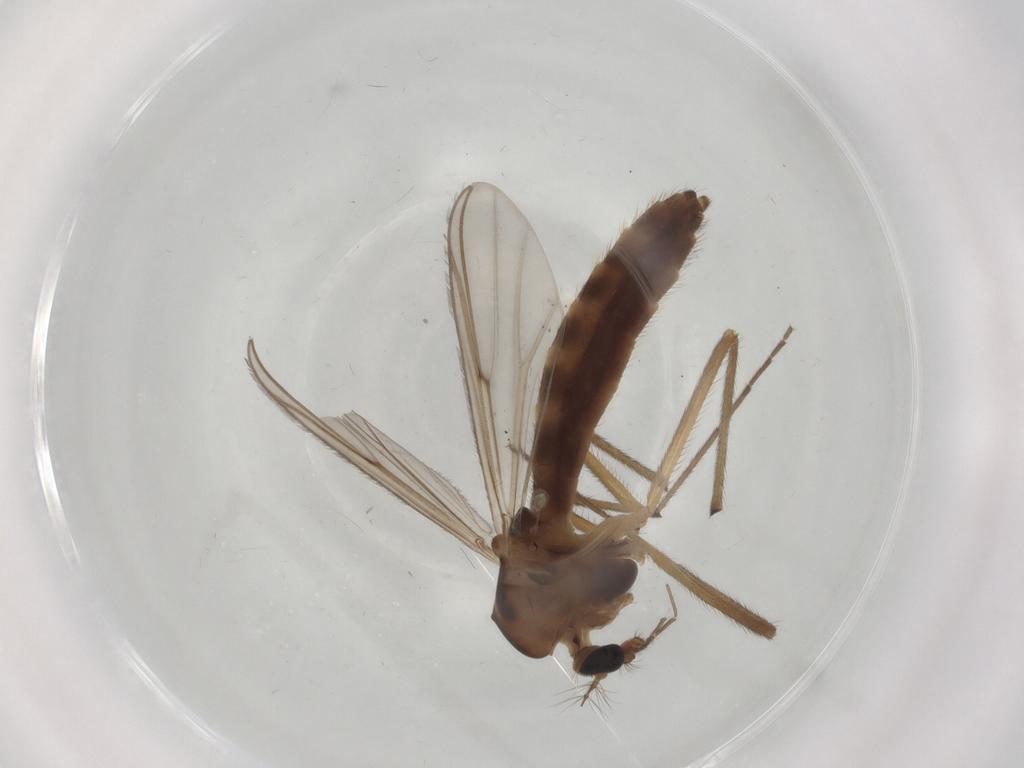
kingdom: Animalia
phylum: Arthropoda
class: Insecta
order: Diptera
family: Chironomidae
